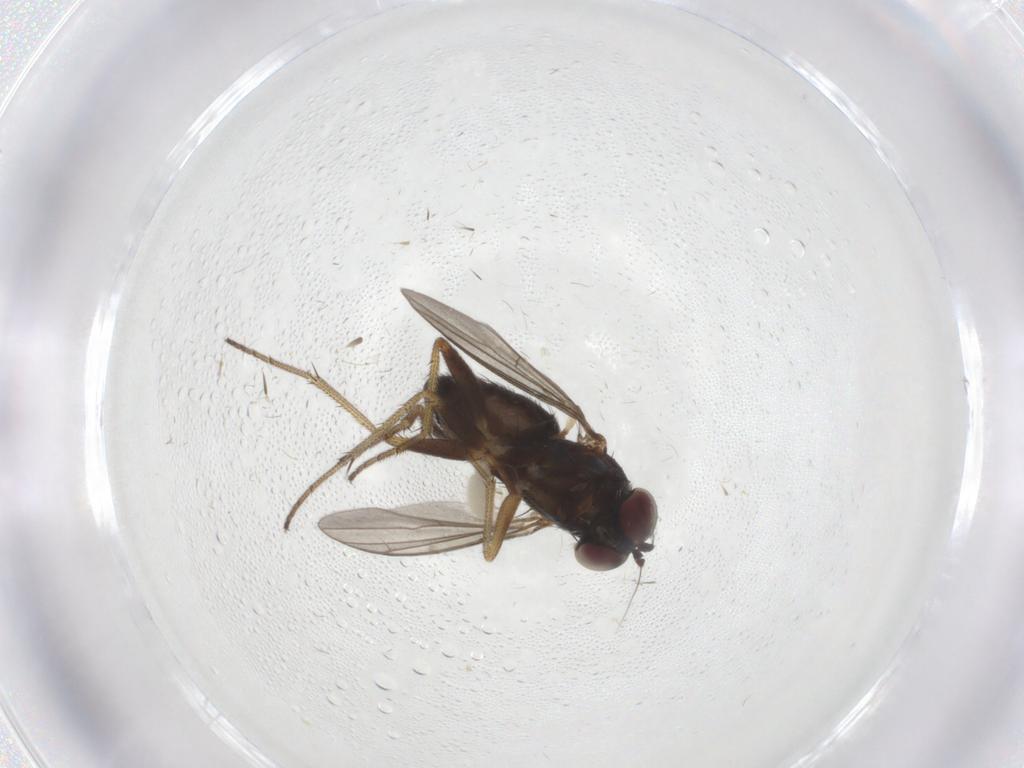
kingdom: Animalia
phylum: Arthropoda
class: Insecta
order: Diptera
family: Dolichopodidae
